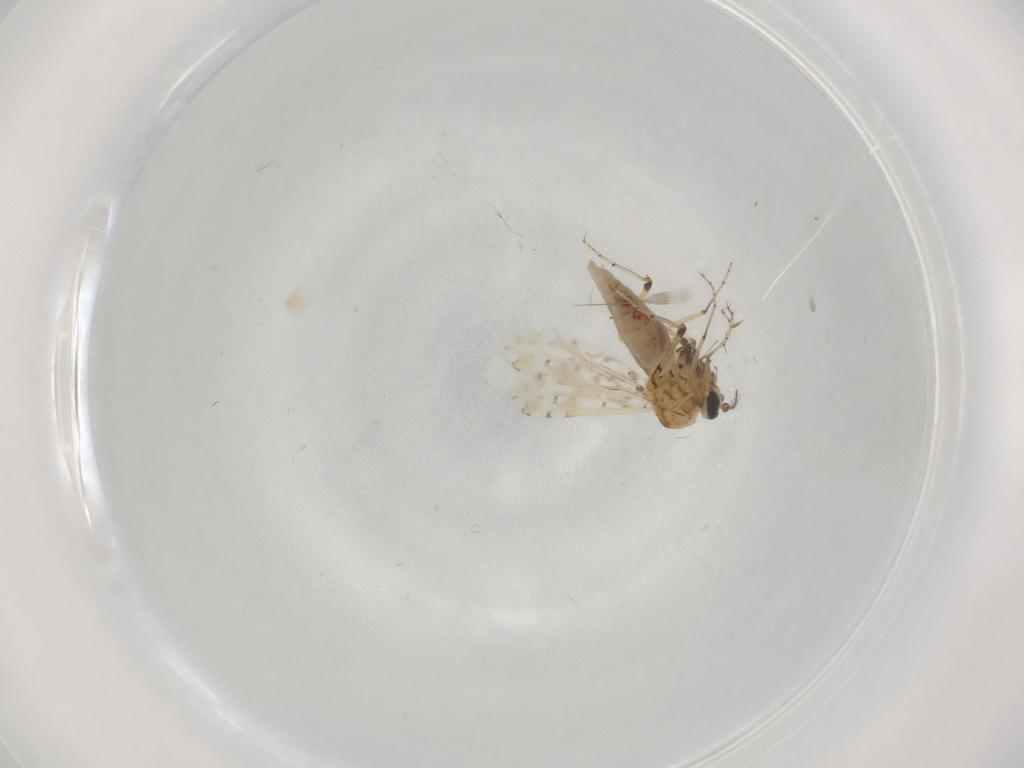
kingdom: Animalia
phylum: Arthropoda
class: Insecta
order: Diptera
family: Ceratopogonidae
